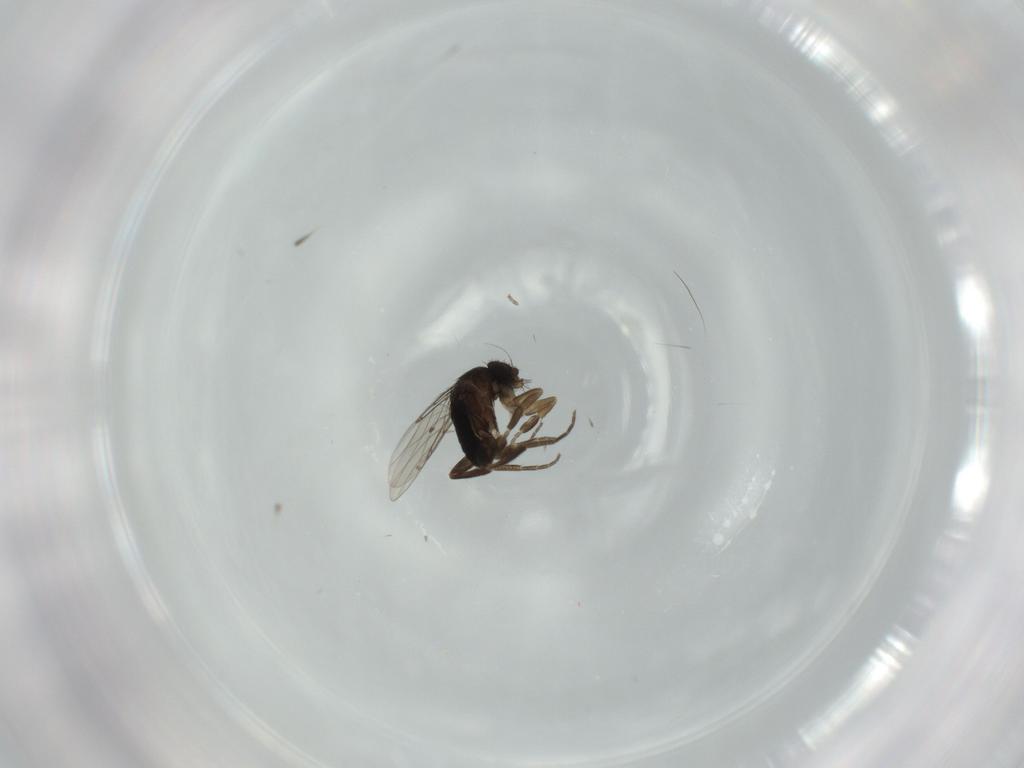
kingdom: Animalia
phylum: Arthropoda
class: Insecta
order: Diptera
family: Phoridae
